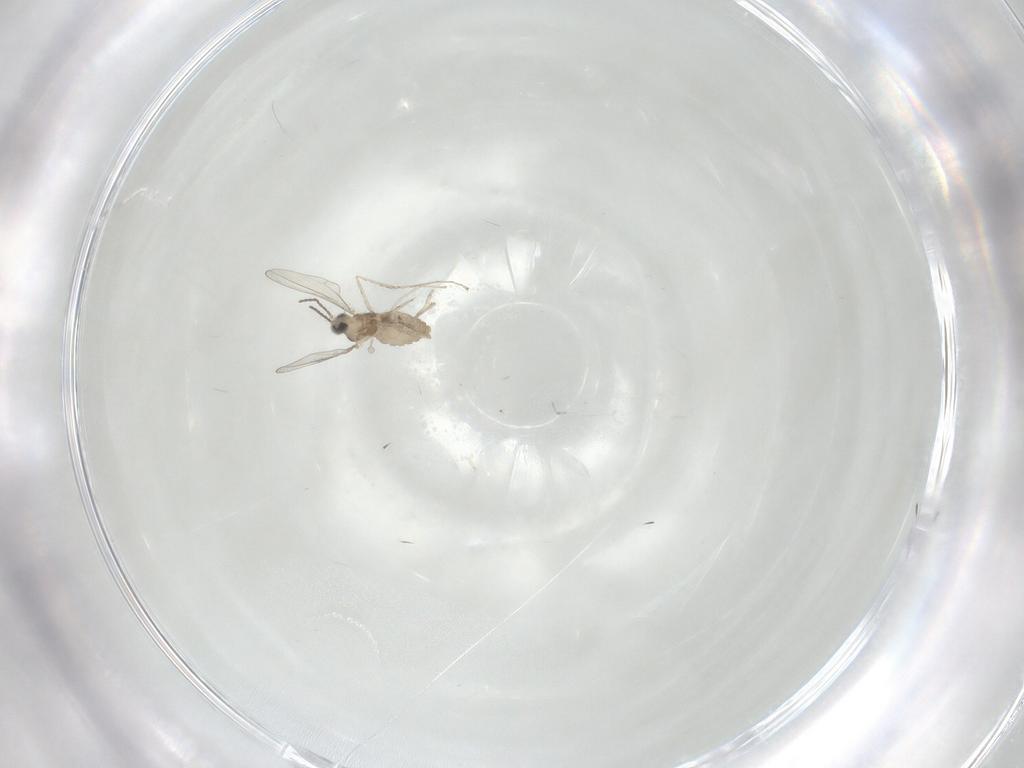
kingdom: Animalia
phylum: Arthropoda
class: Insecta
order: Diptera
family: Cecidomyiidae
